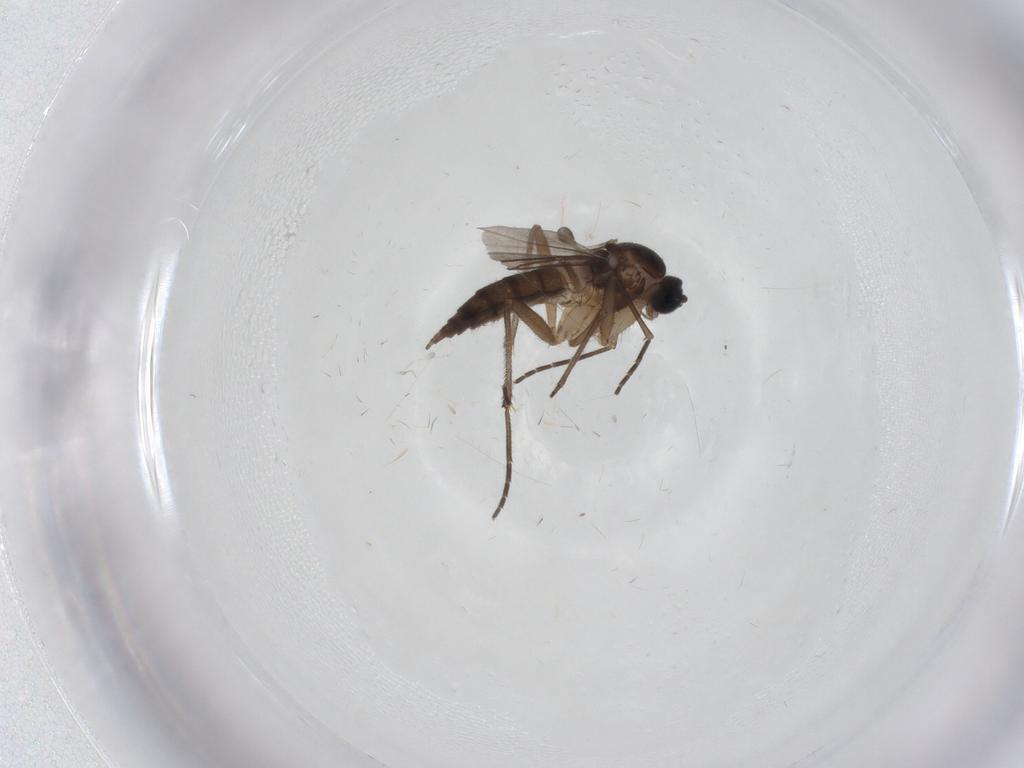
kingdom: Animalia
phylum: Arthropoda
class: Insecta
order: Diptera
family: Sciaridae
